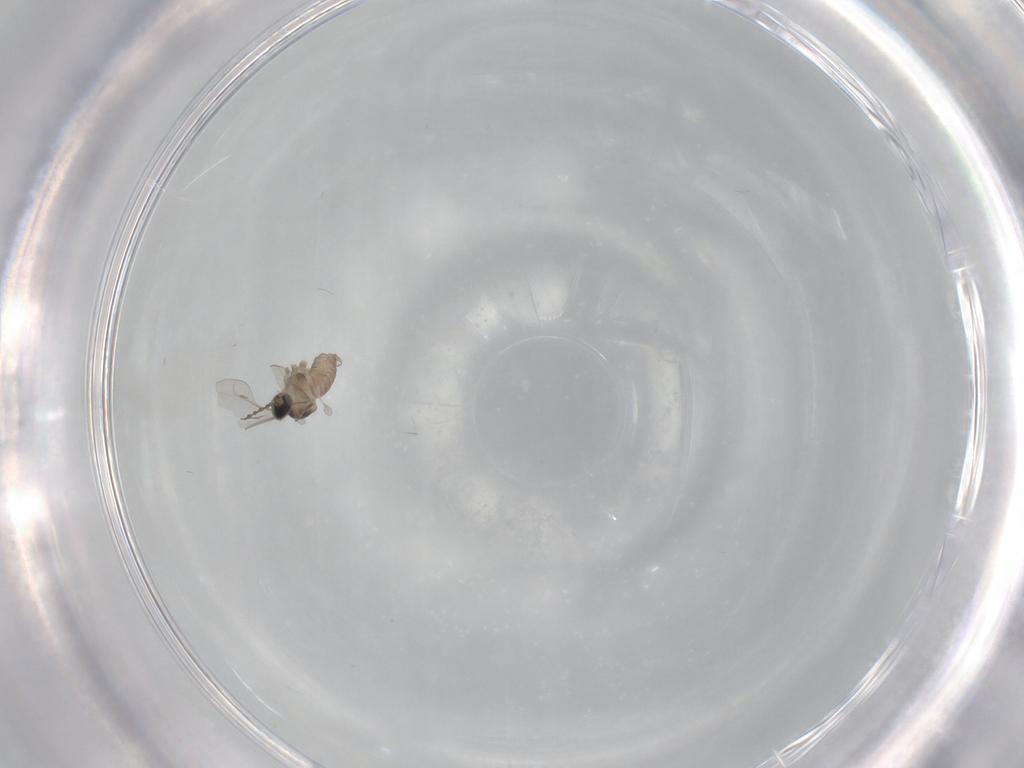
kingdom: Animalia
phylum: Arthropoda
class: Insecta
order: Diptera
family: Cecidomyiidae
